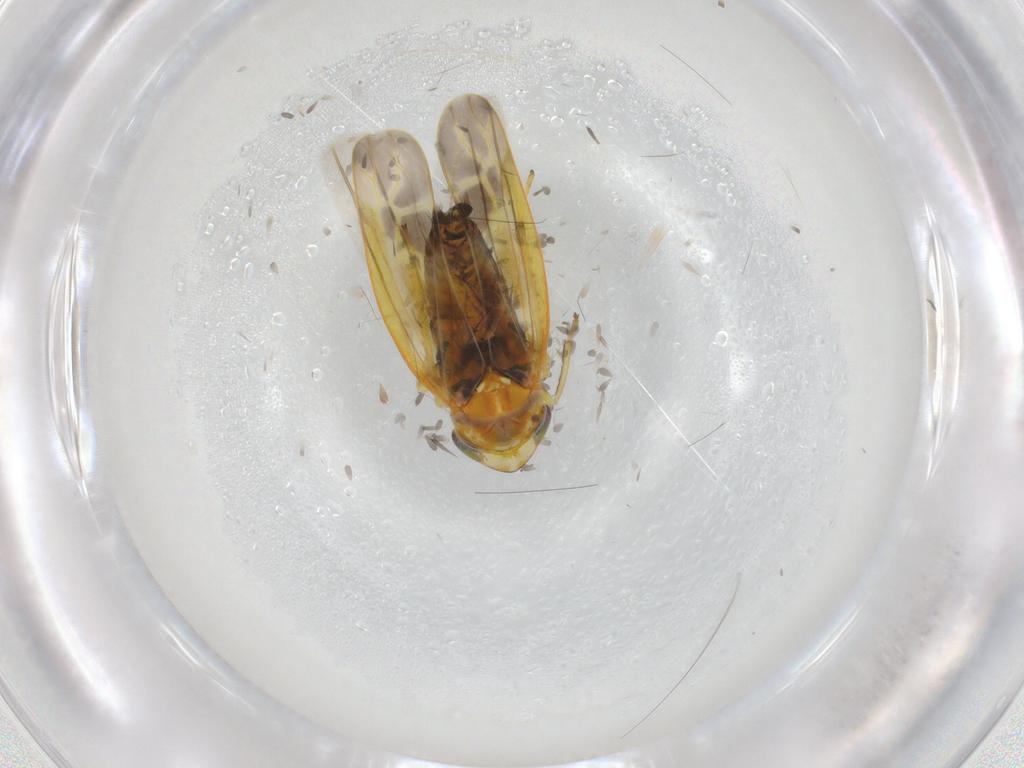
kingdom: Animalia
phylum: Arthropoda
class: Insecta
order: Hemiptera
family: Cicadellidae
